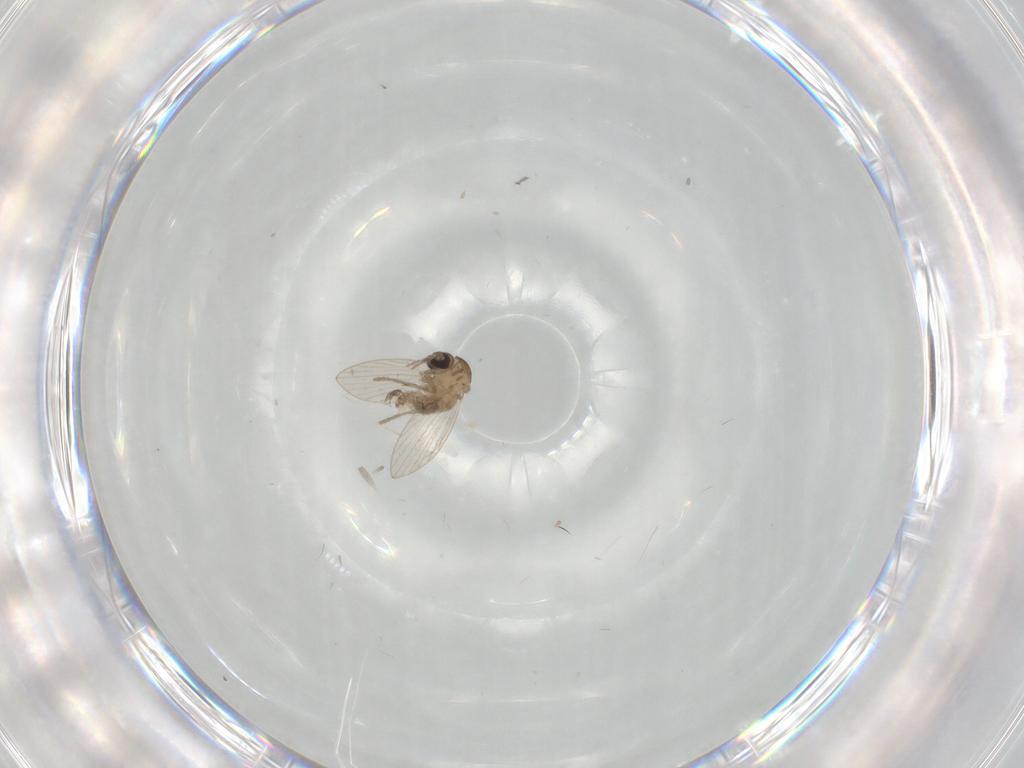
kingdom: Animalia
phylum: Arthropoda
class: Insecta
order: Diptera
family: Psychodidae
